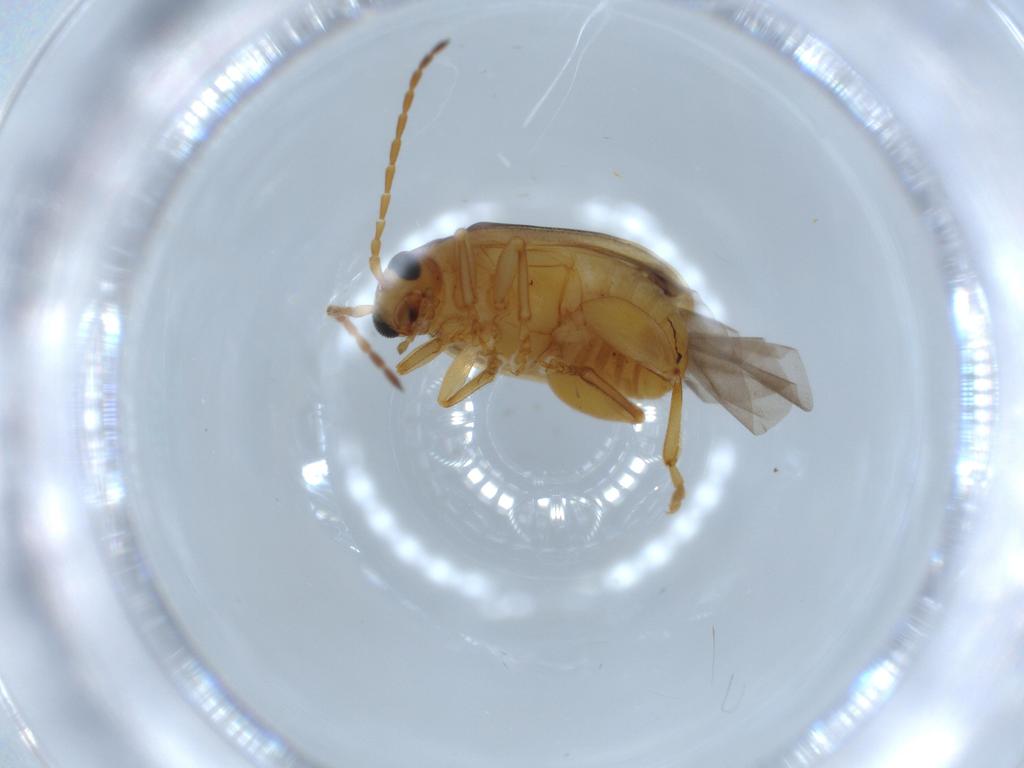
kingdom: Animalia
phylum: Arthropoda
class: Insecta
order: Coleoptera
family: Chrysomelidae
